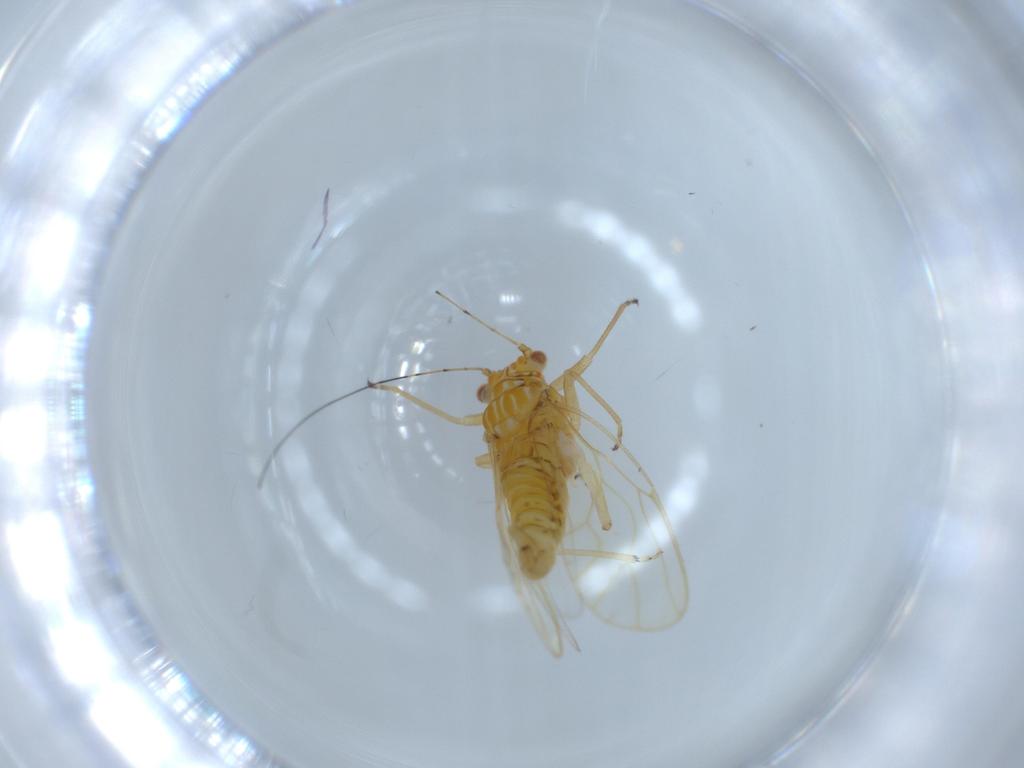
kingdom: Animalia
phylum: Arthropoda
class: Insecta
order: Hemiptera
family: Psyllidae
